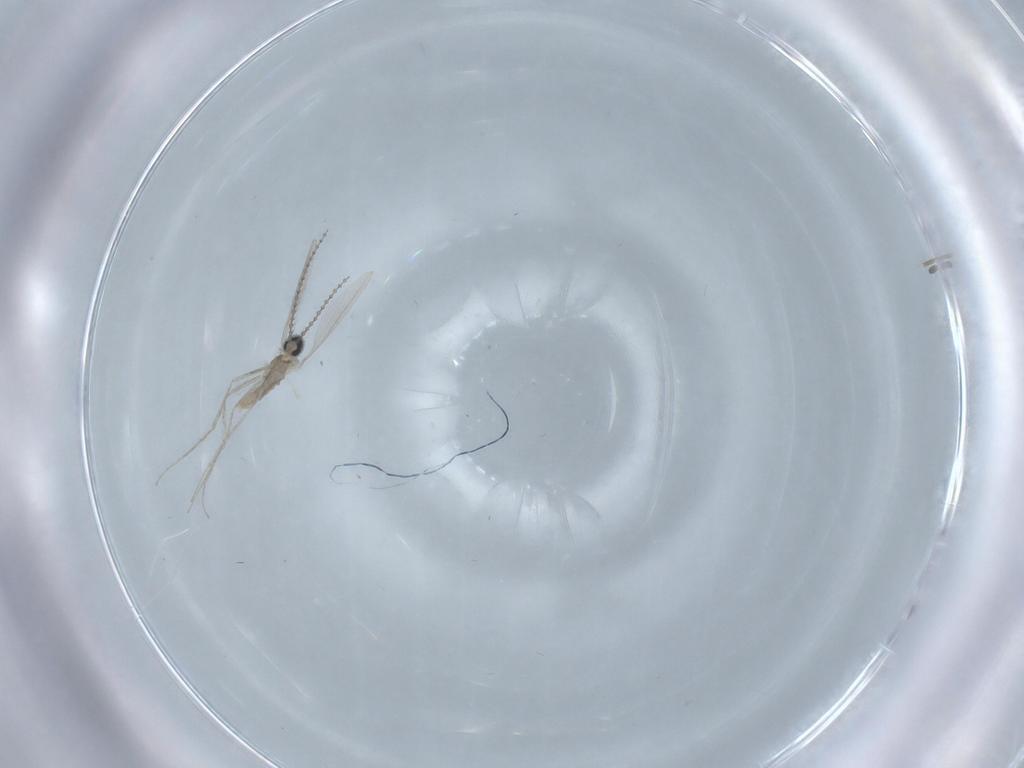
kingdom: Animalia
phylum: Arthropoda
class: Insecta
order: Diptera
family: Cecidomyiidae
